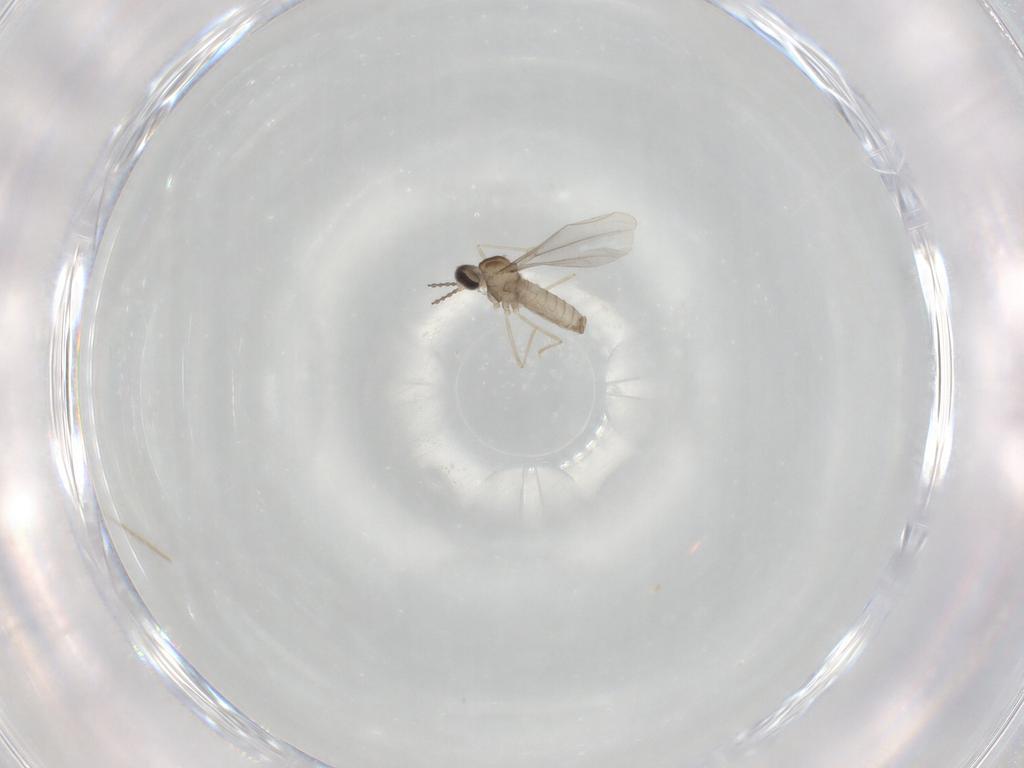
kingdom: Animalia
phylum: Arthropoda
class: Insecta
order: Diptera
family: Cecidomyiidae
